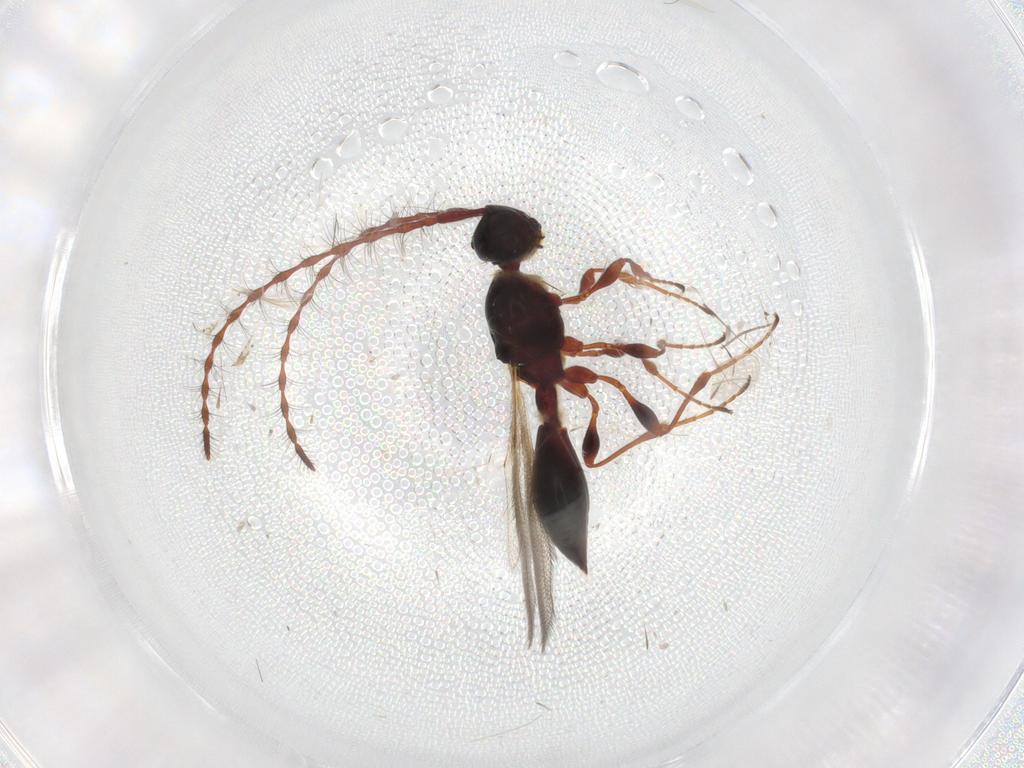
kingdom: Animalia
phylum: Arthropoda
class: Insecta
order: Hymenoptera
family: Diapriidae
